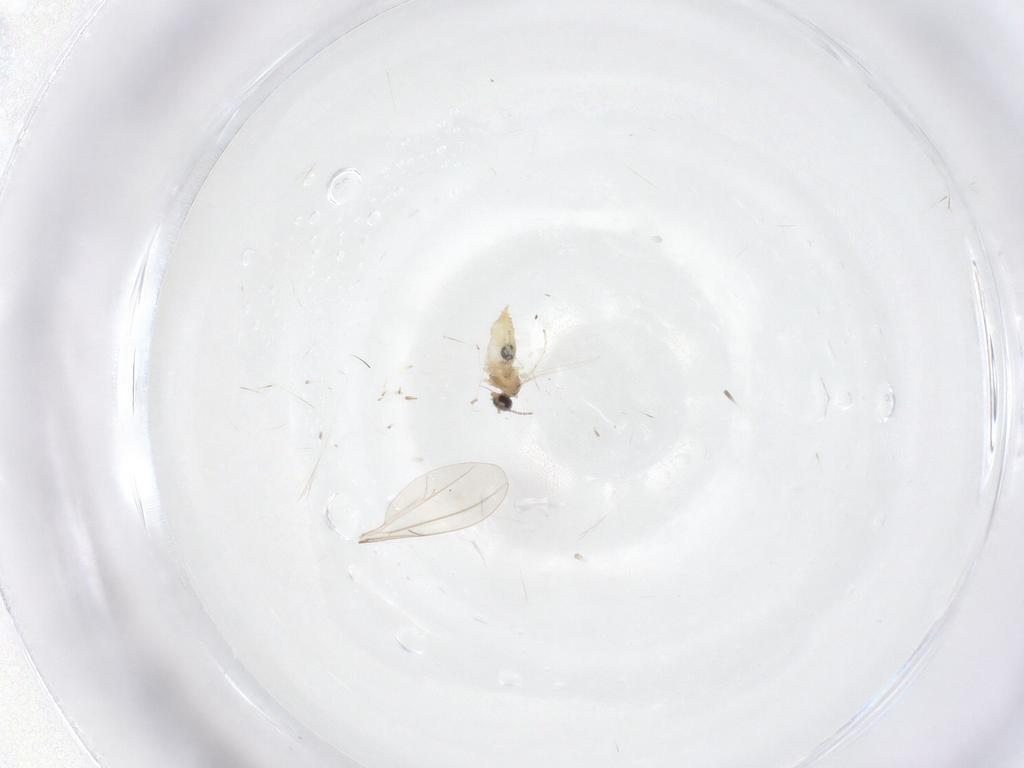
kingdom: Animalia
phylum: Arthropoda
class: Insecta
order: Diptera
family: Cecidomyiidae
